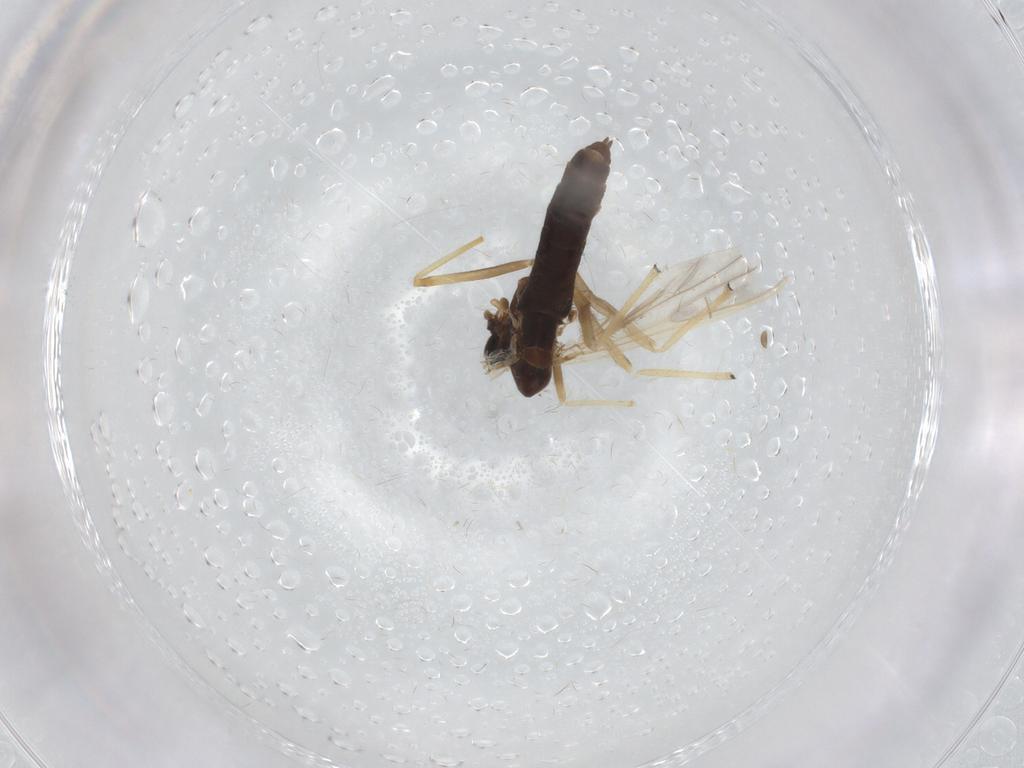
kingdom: Animalia
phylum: Arthropoda
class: Insecta
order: Diptera
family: Chironomidae
